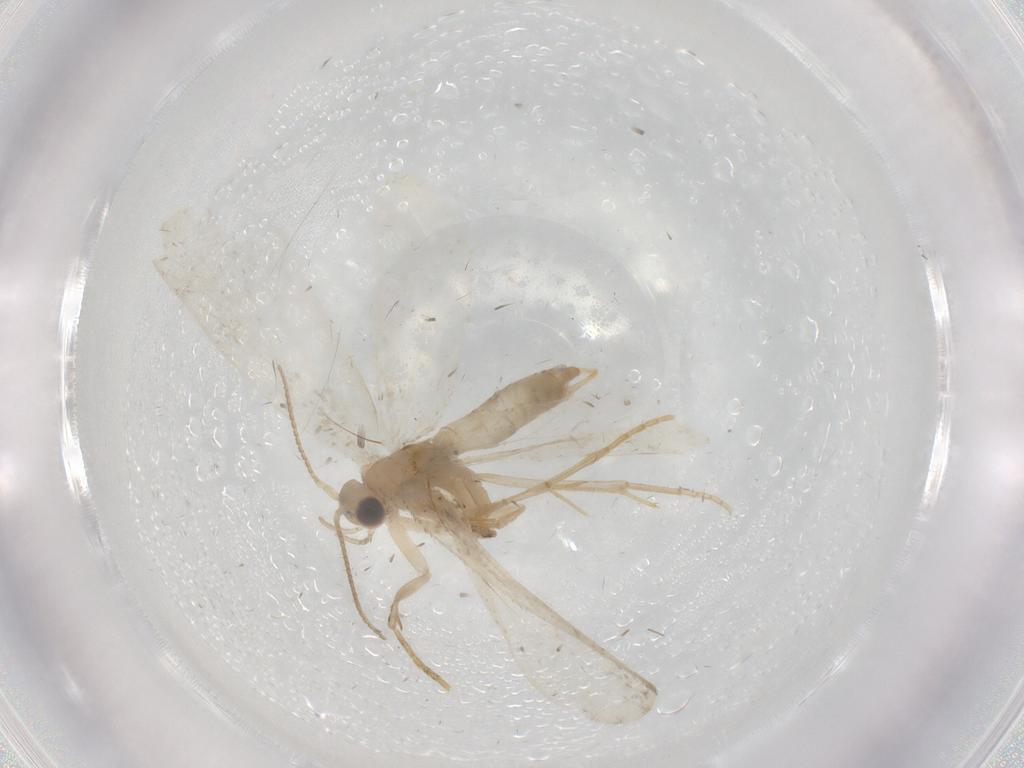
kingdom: Animalia
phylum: Arthropoda
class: Insecta
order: Lepidoptera
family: Psychidae
